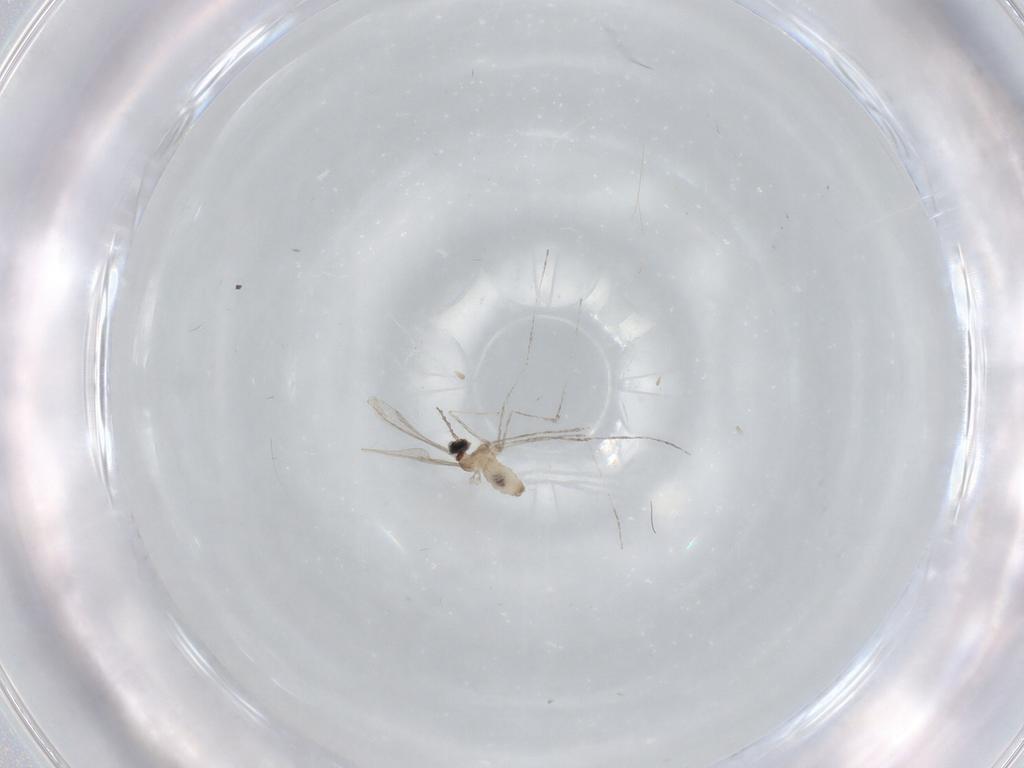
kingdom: Animalia
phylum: Arthropoda
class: Insecta
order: Diptera
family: Cecidomyiidae
